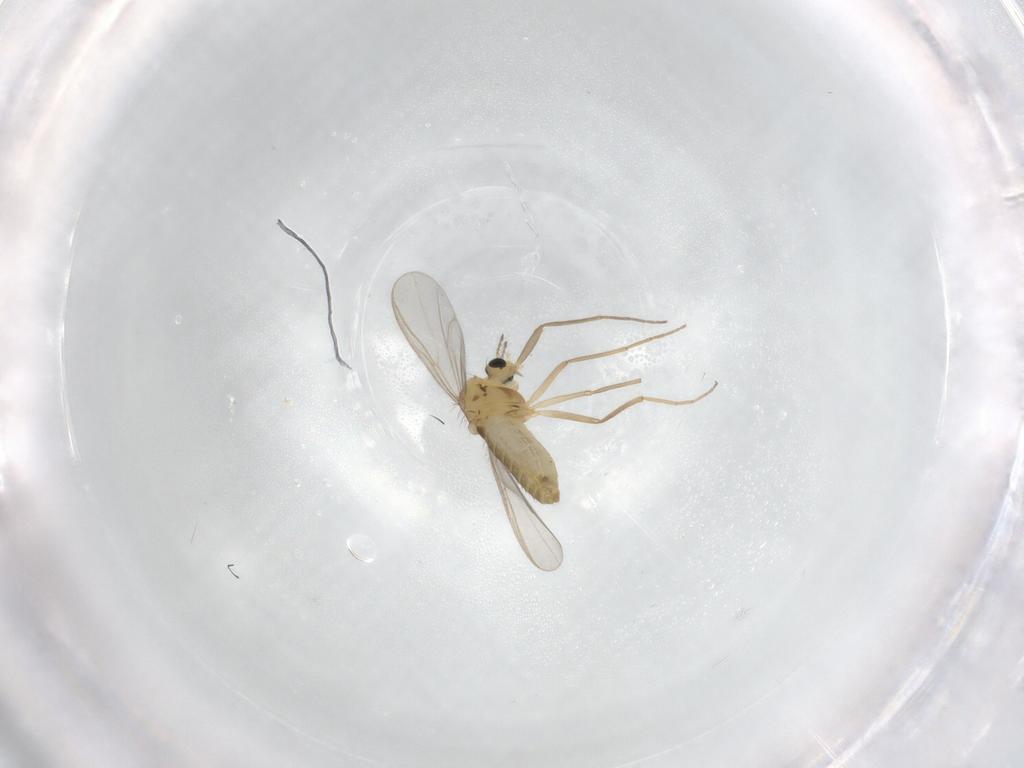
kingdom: Animalia
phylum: Arthropoda
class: Insecta
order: Diptera
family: Chironomidae
